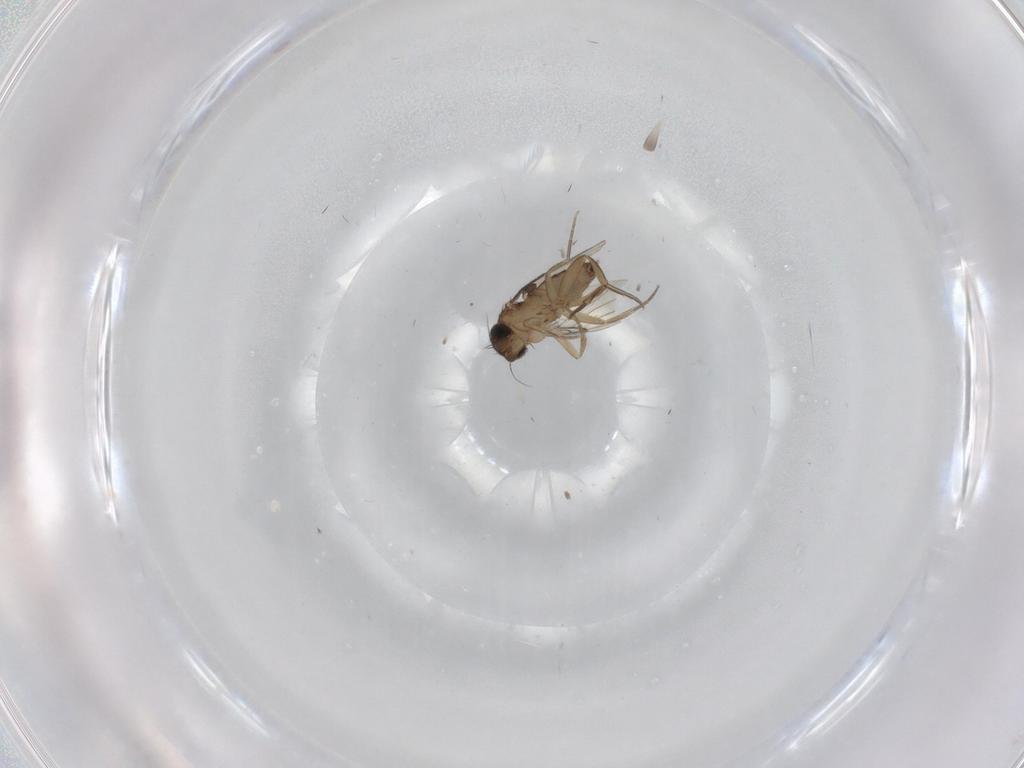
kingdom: Animalia
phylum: Arthropoda
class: Insecta
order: Diptera
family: Phoridae
